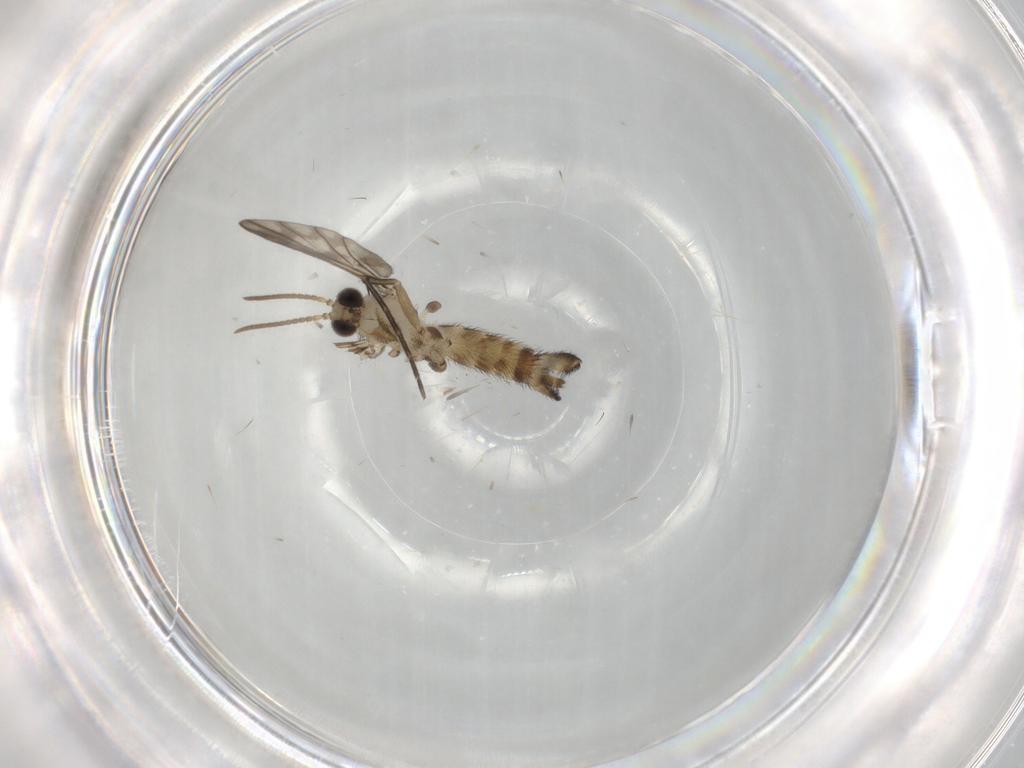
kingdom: Animalia
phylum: Arthropoda
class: Insecta
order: Diptera
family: Keroplatidae
